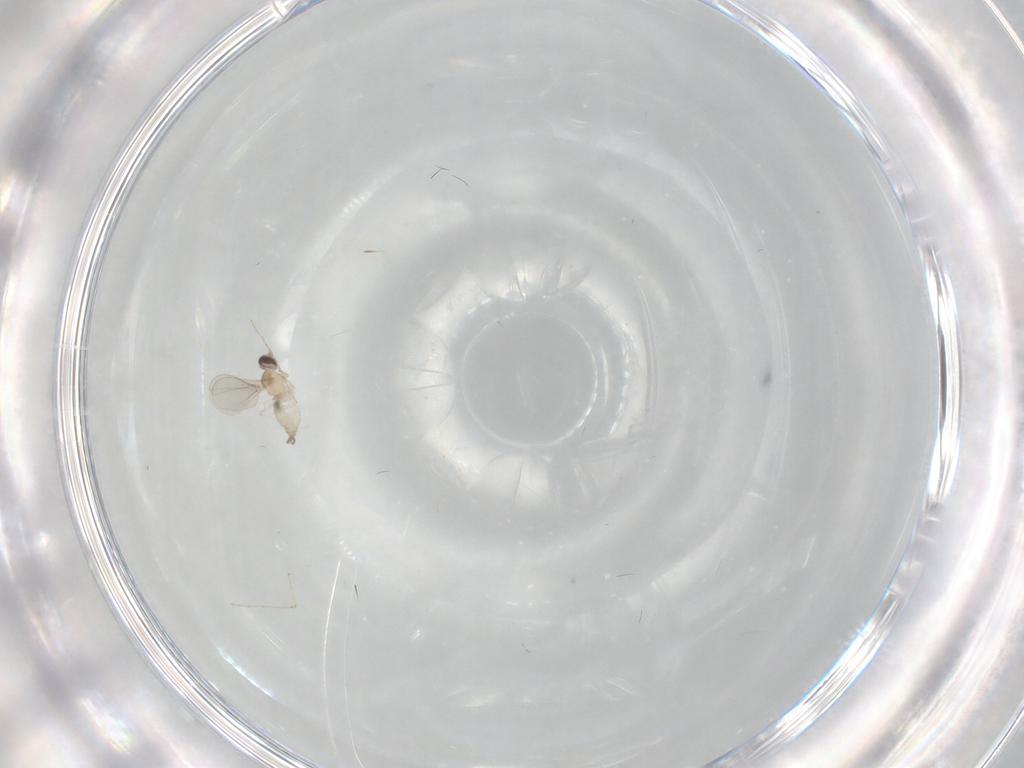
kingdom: Animalia
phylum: Arthropoda
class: Insecta
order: Diptera
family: Cecidomyiidae
